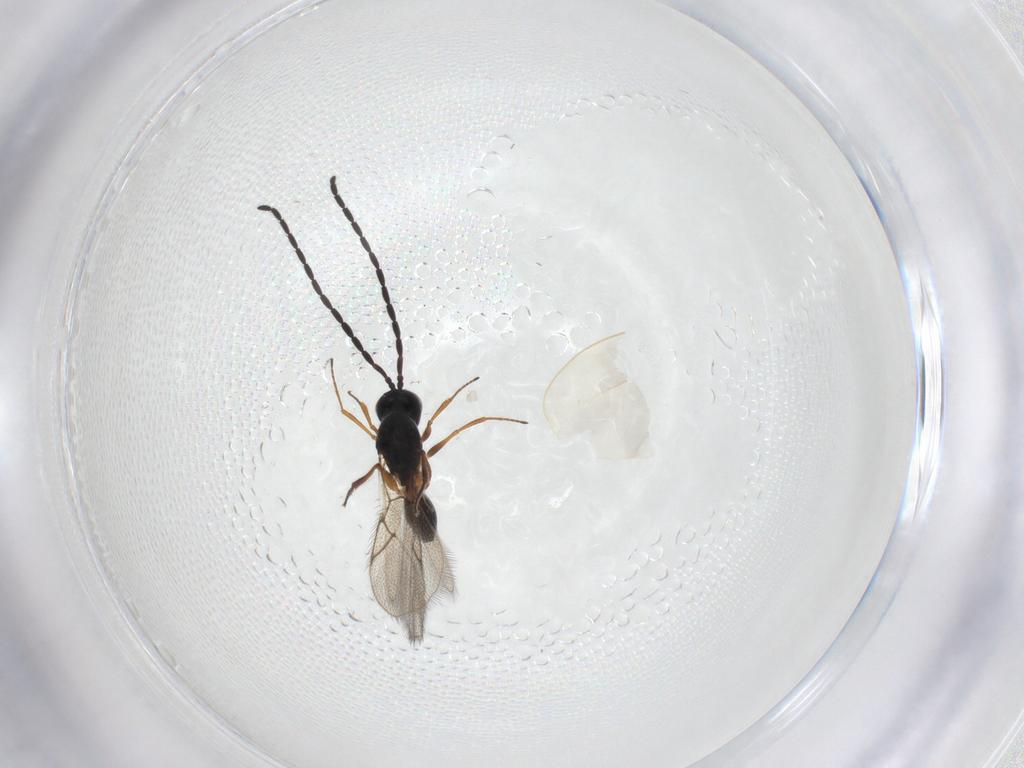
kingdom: Animalia
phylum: Arthropoda
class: Insecta
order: Hymenoptera
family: Figitidae
